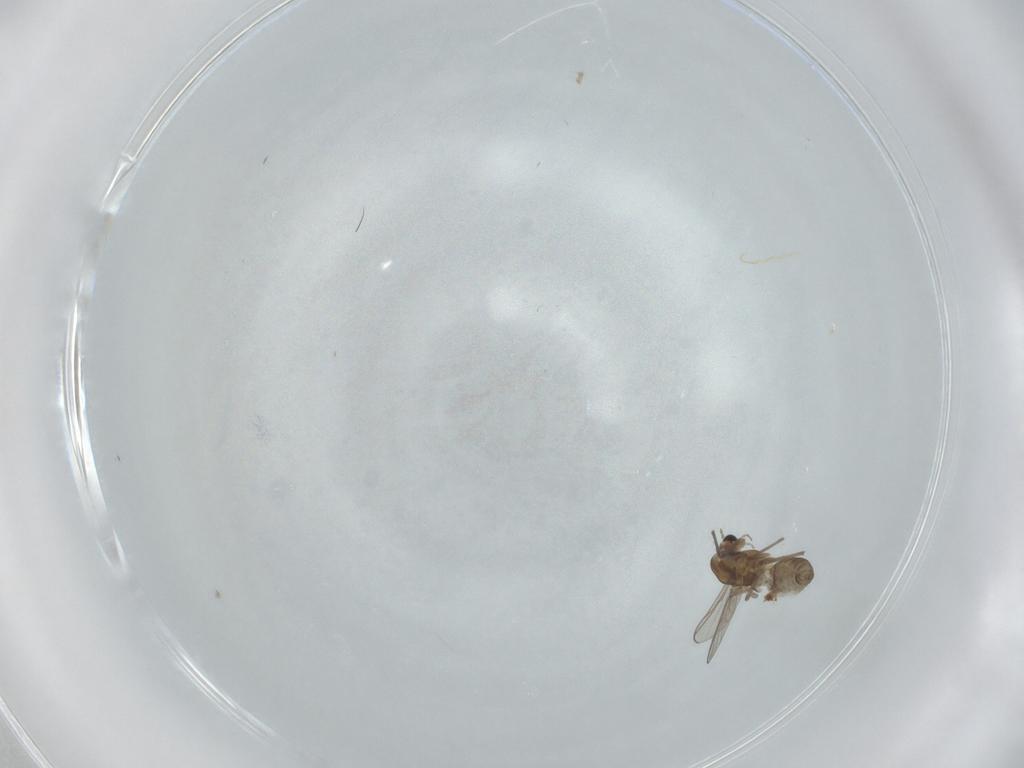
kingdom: Animalia
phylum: Arthropoda
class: Insecta
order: Diptera
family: Chironomidae
